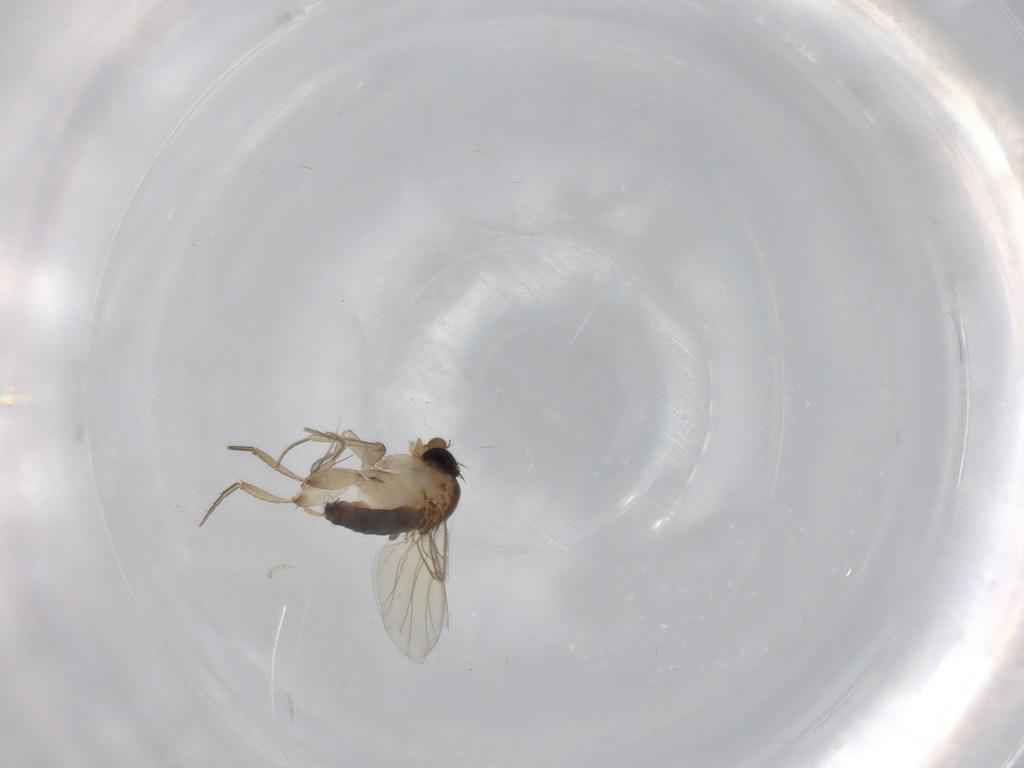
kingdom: Animalia
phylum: Arthropoda
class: Insecta
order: Diptera
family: Phoridae
